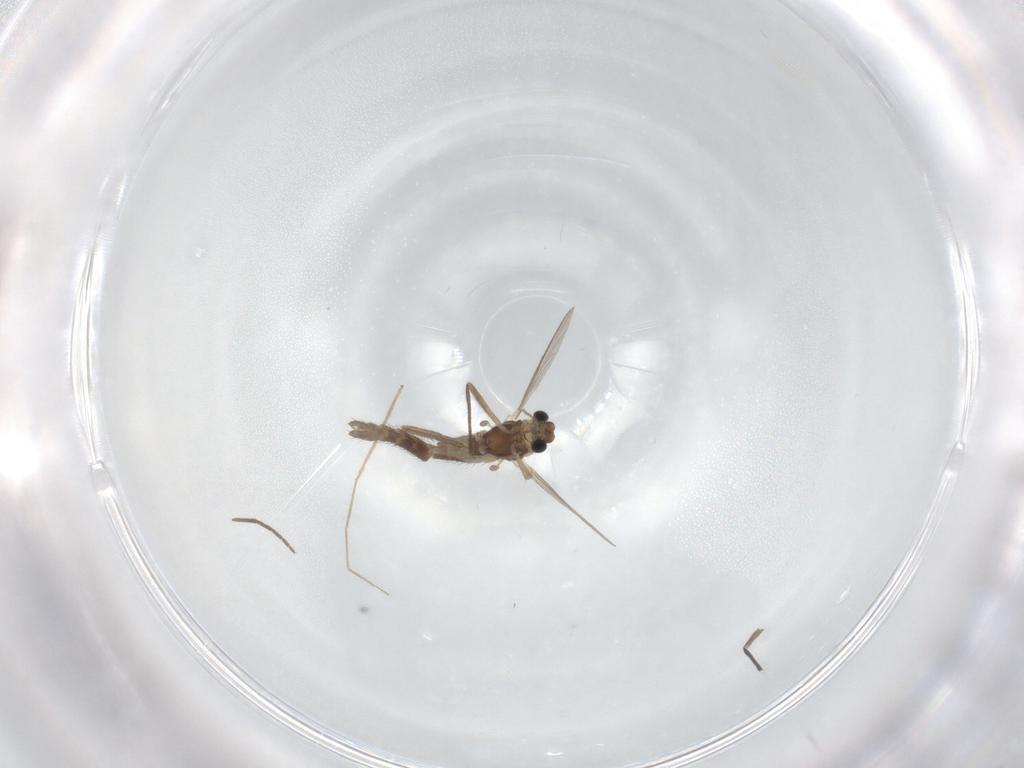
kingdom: Animalia
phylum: Arthropoda
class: Insecta
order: Diptera
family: Chironomidae
